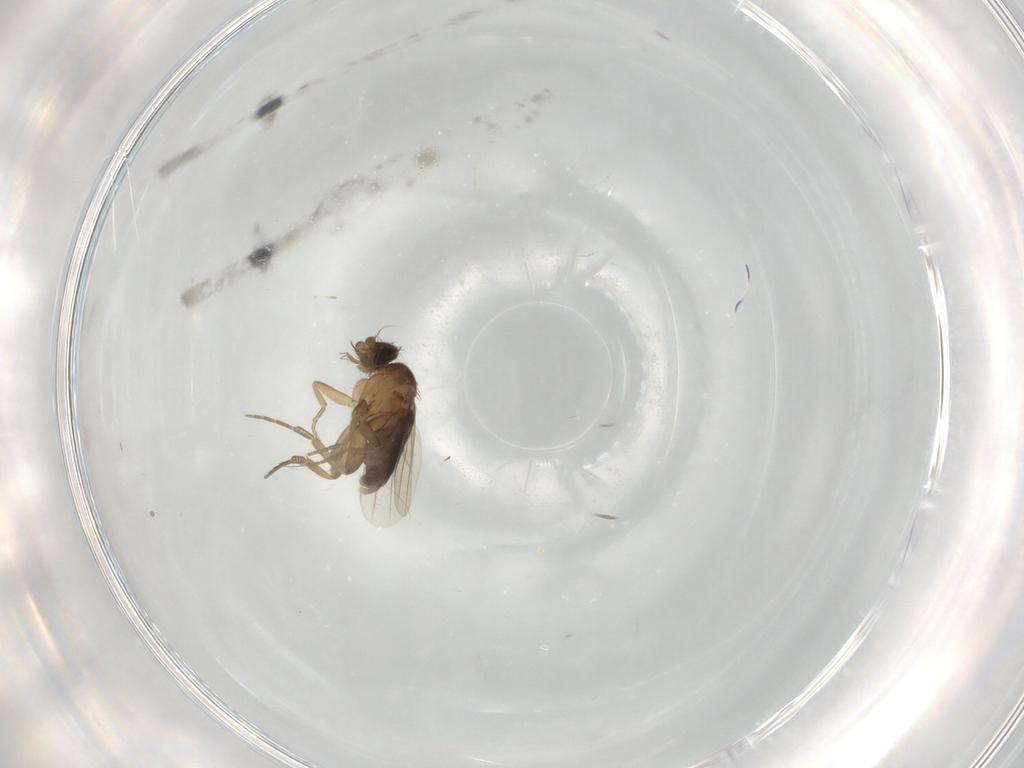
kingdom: Animalia
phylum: Arthropoda
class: Insecta
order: Diptera
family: Phoridae
